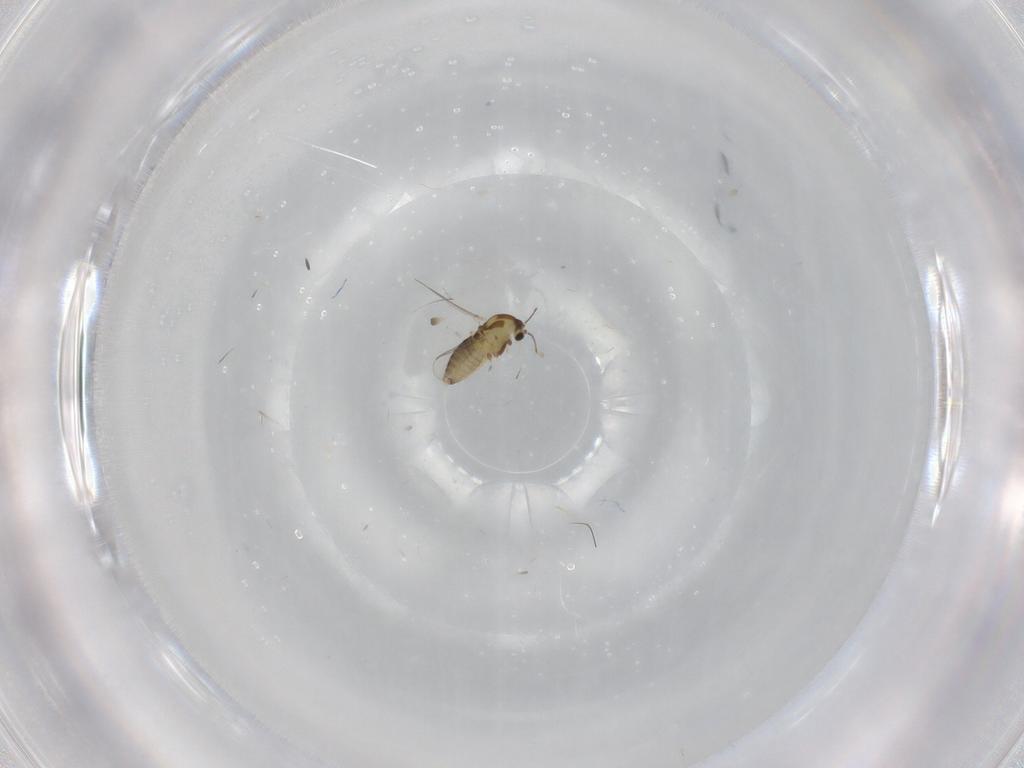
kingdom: Animalia
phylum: Arthropoda
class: Insecta
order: Diptera
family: Chironomidae
